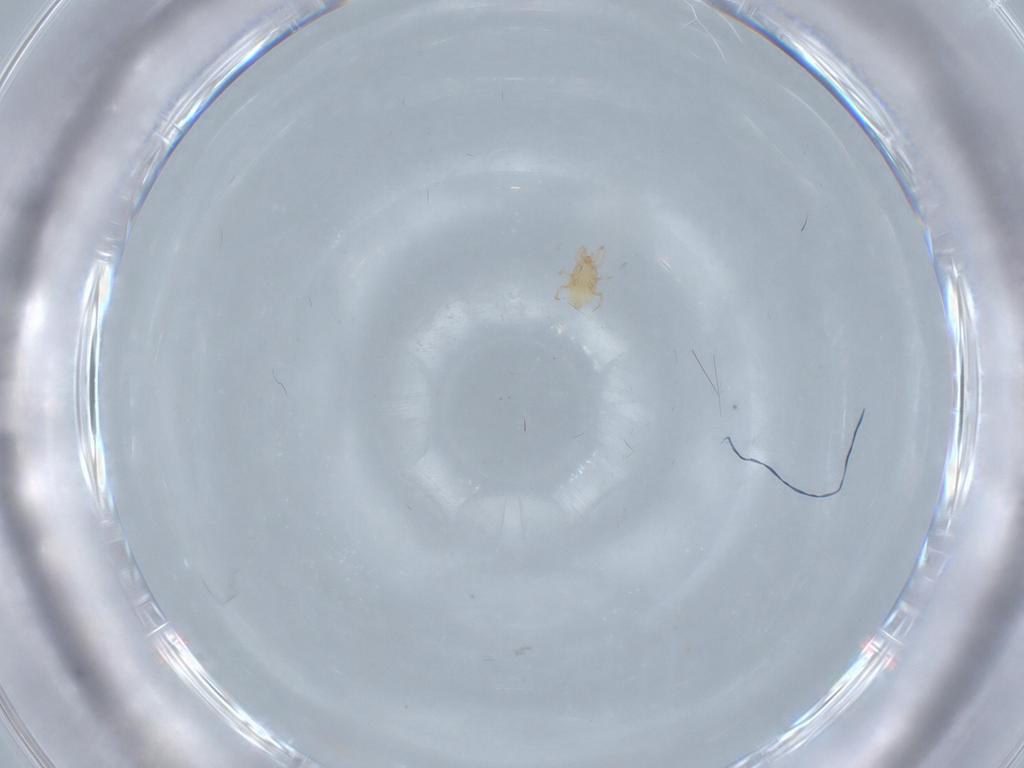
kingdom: Animalia
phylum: Arthropoda
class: Arachnida
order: Mesostigmata
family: Melicharidae
